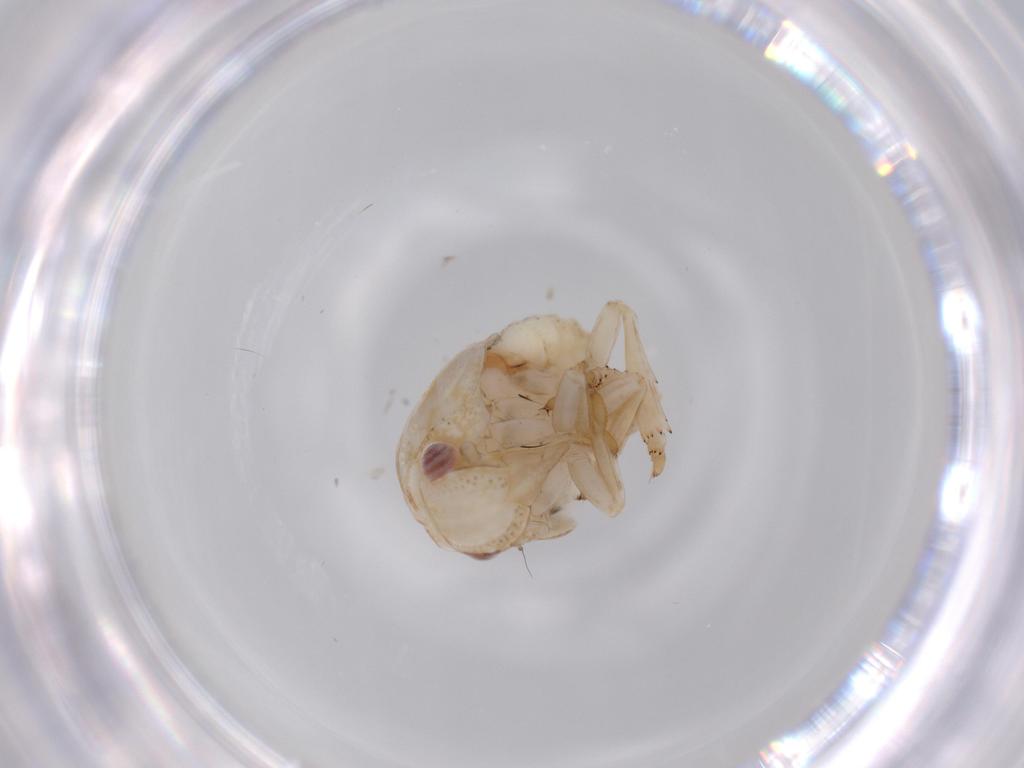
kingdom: Animalia
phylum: Arthropoda
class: Insecta
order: Hemiptera
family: Acanaloniidae
